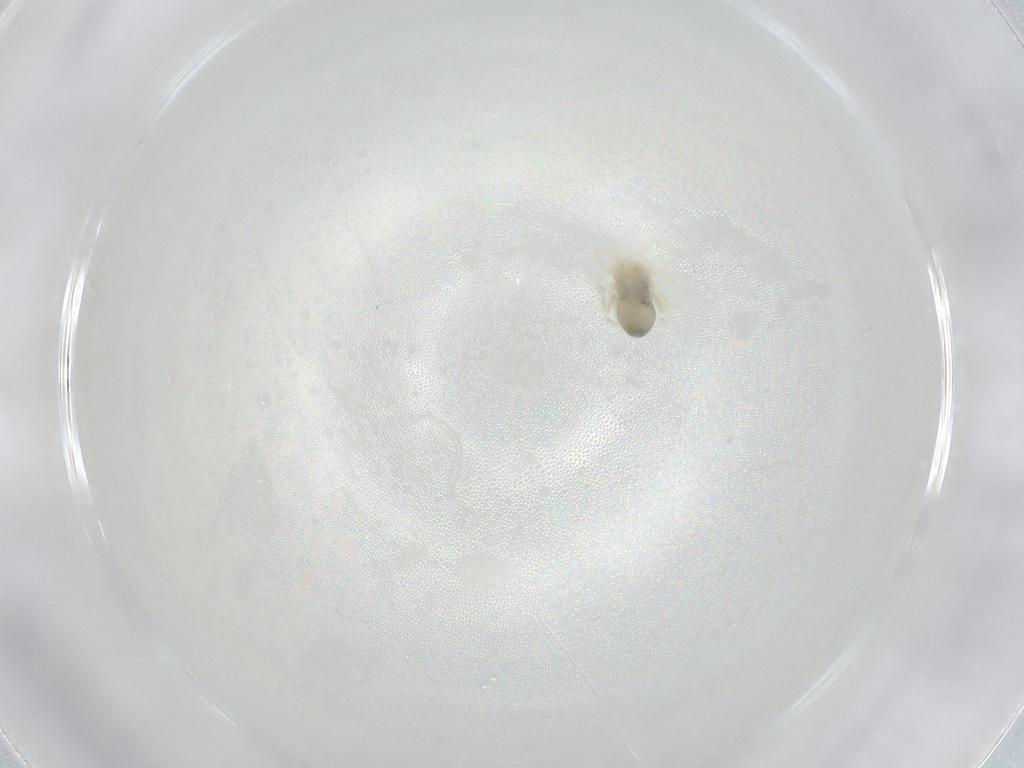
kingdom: Animalia
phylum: Arthropoda
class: Arachnida
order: Trombidiformes
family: Anystidae
